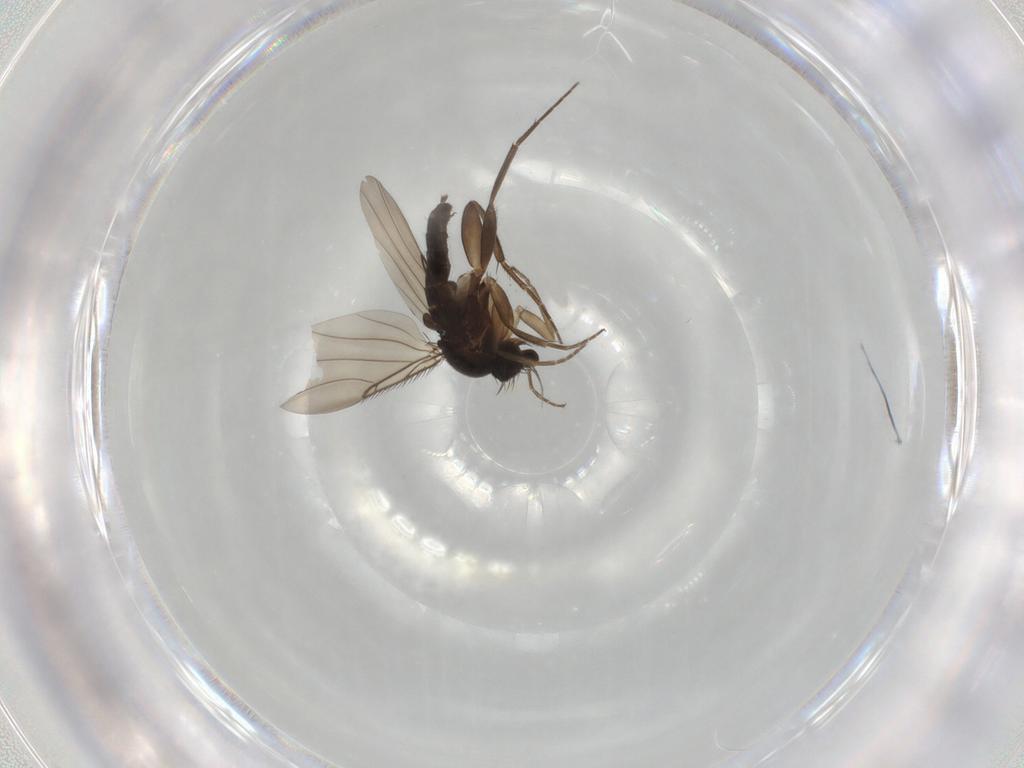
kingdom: Animalia
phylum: Arthropoda
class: Insecta
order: Diptera
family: Phoridae
